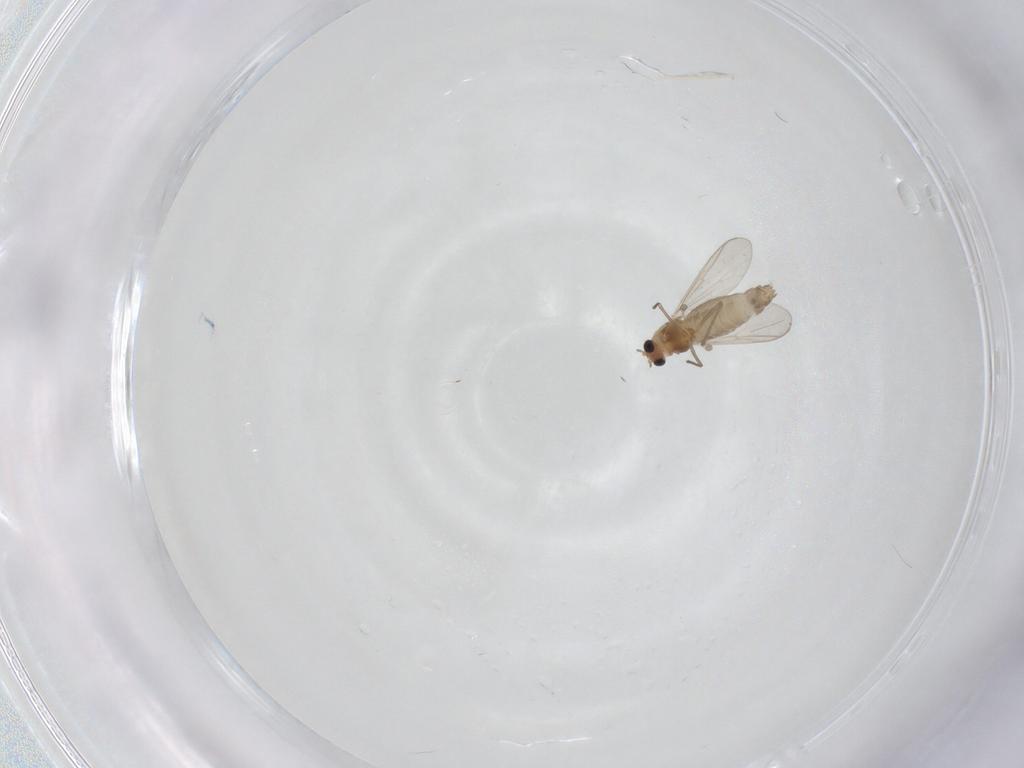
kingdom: Animalia
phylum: Arthropoda
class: Insecta
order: Diptera
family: Chironomidae
